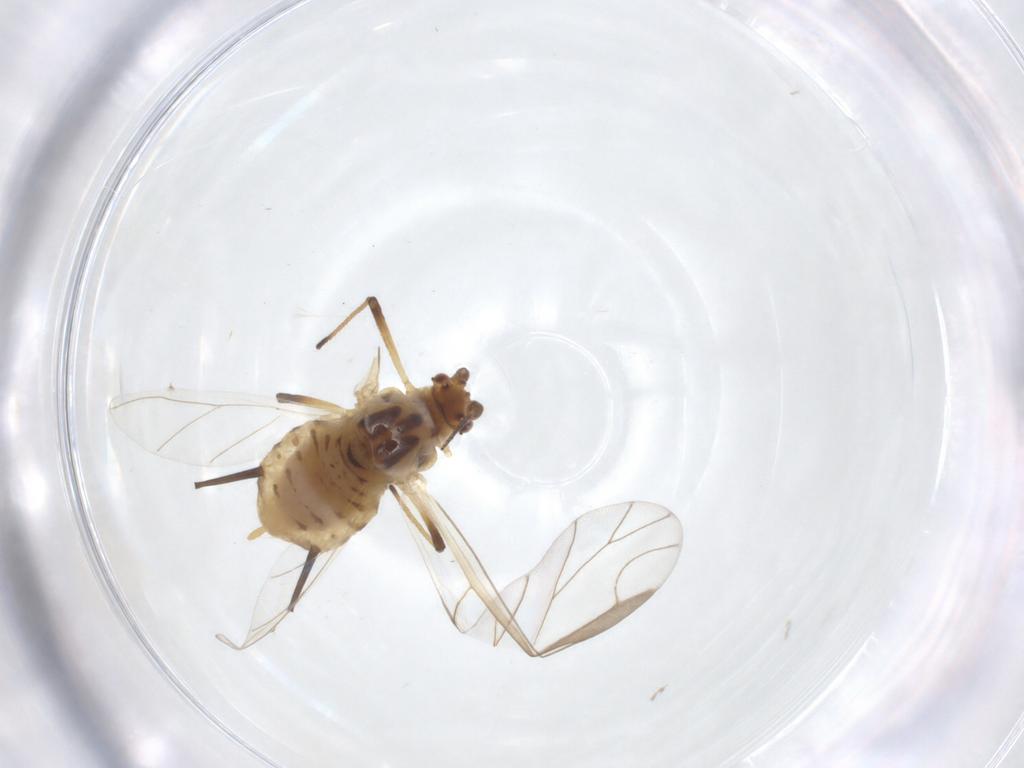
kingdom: Animalia
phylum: Arthropoda
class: Insecta
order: Hemiptera
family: Aphididae
